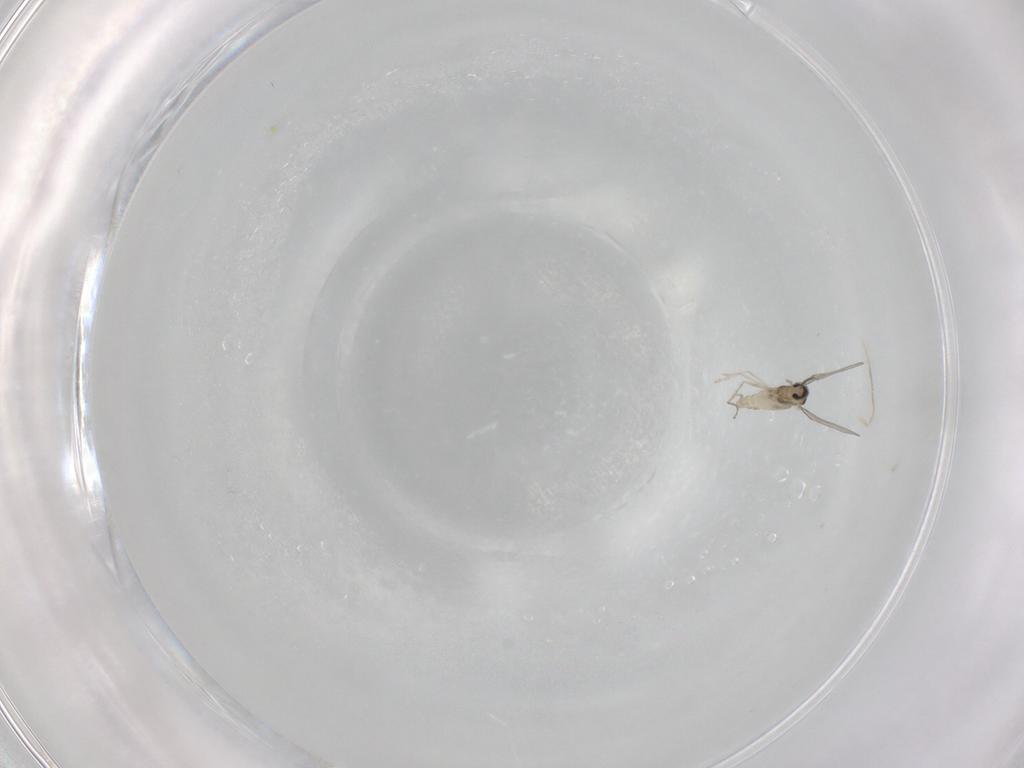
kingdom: Animalia
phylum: Arthropoda
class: Insecta
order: Diptera
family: Cecidomyiidae
